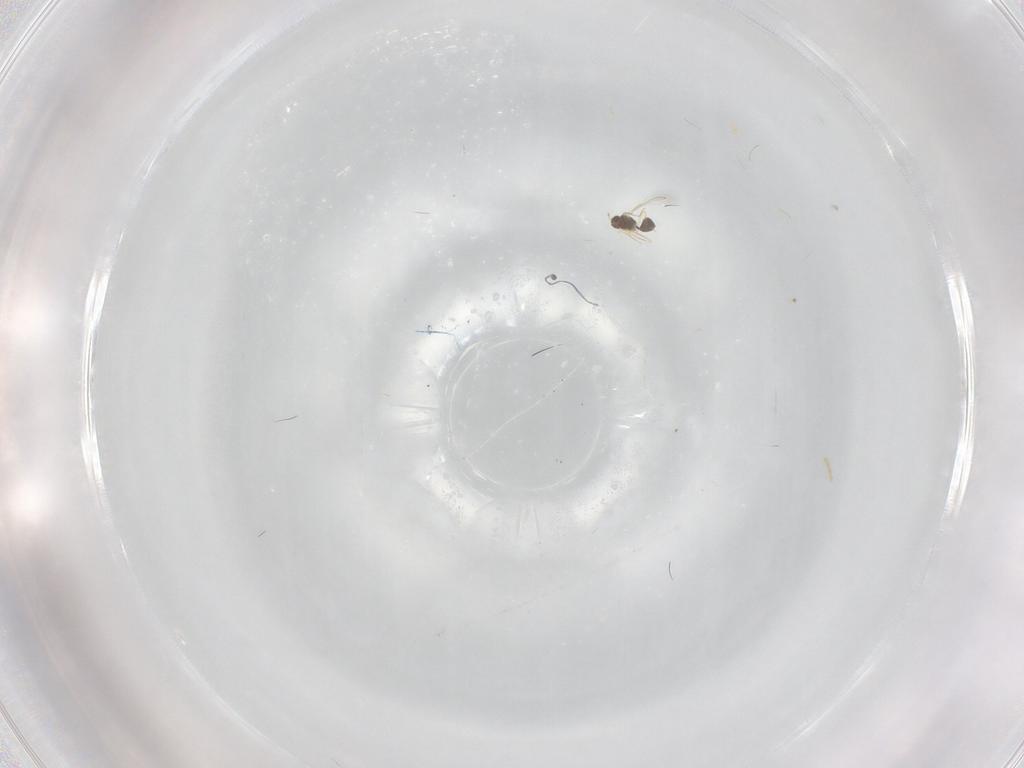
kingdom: Animalia
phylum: Arthropoda
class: Insecta
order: Hymenoptera
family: Mymaridae
